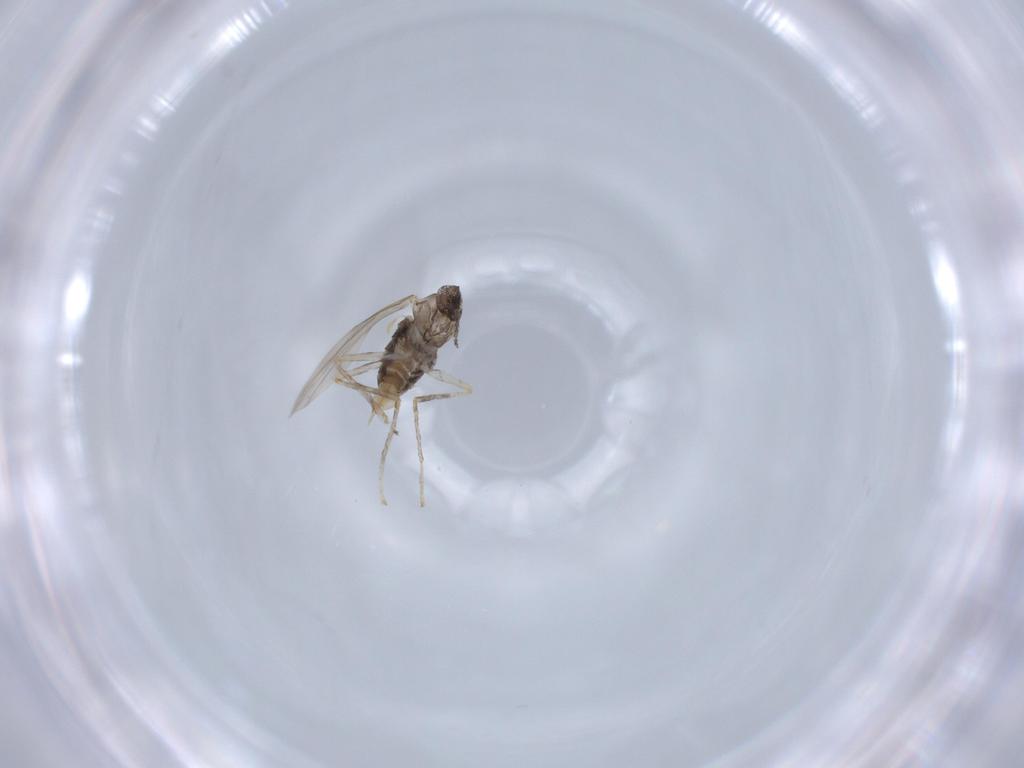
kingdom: Animalia
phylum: Arthropoda
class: Insecta
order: Diptera
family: Cecidomyiidae
